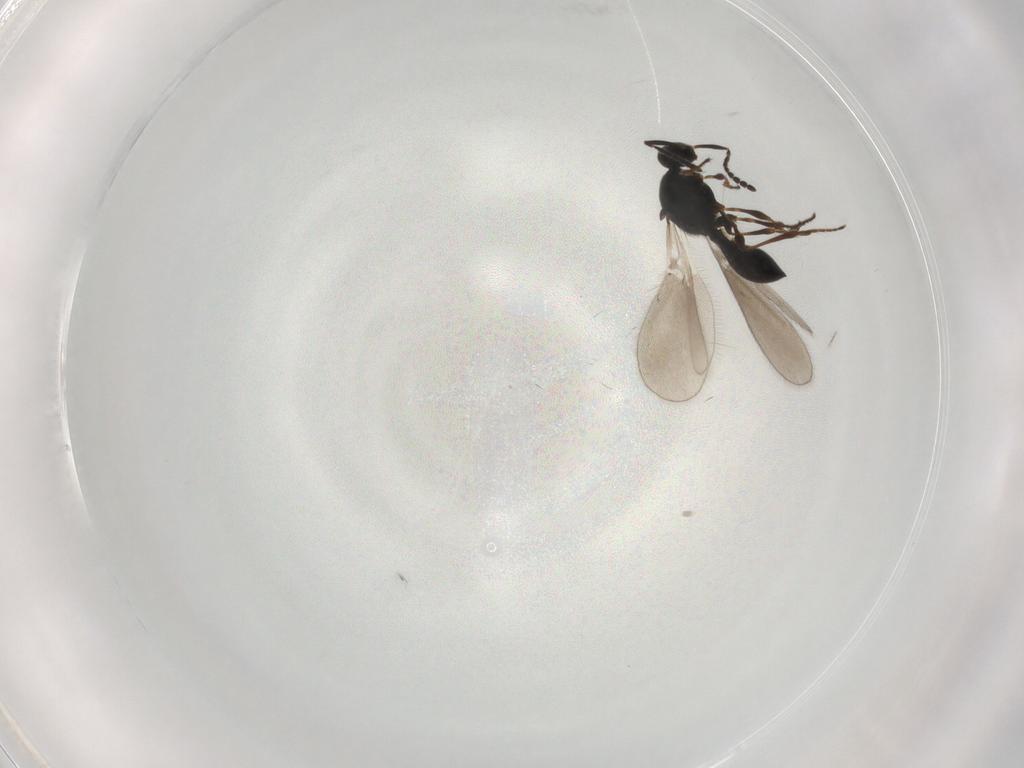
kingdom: Animalia
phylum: Arthropoda
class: Insecta
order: Hymenoptera
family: Platygastridae
